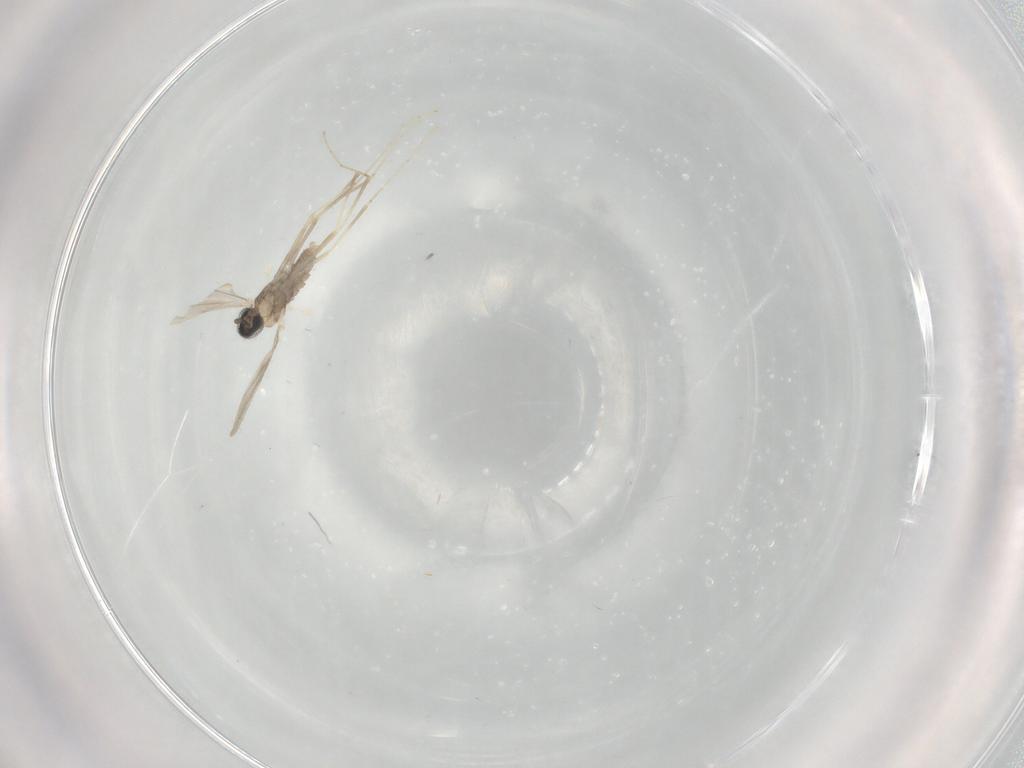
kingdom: Animalia
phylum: Arthropoda
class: Insecta
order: Diptera
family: Cecidomyiidae
